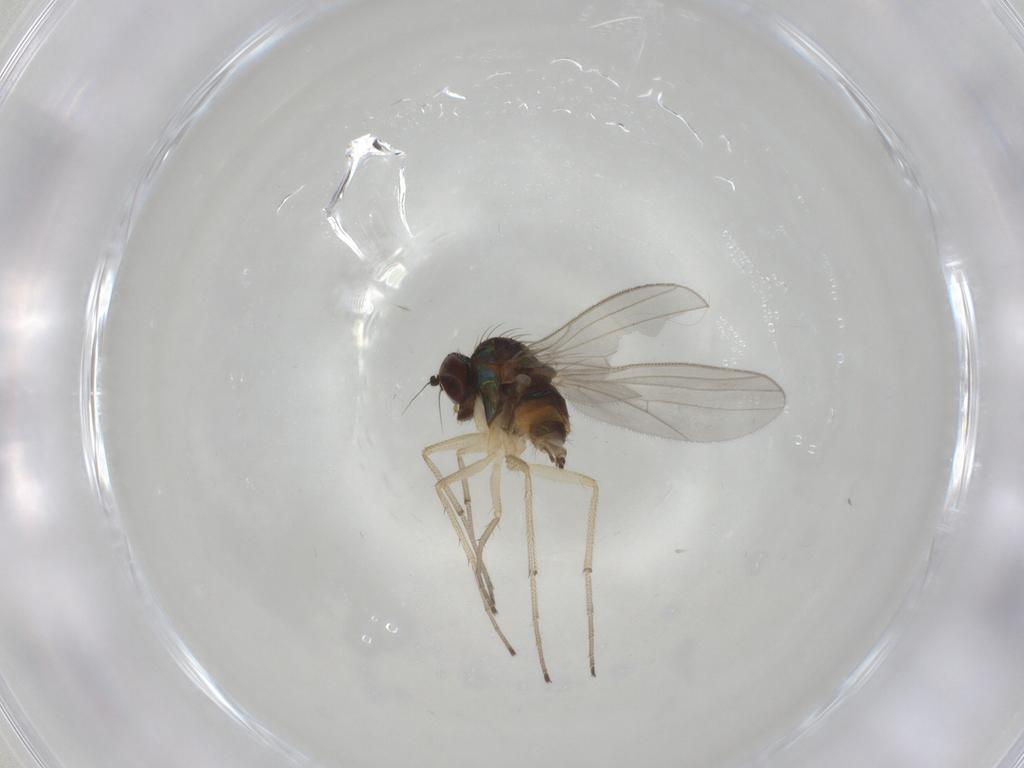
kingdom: Animalia
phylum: Arthropoda
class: Insecta
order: Diptera
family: Dolichopodidae
